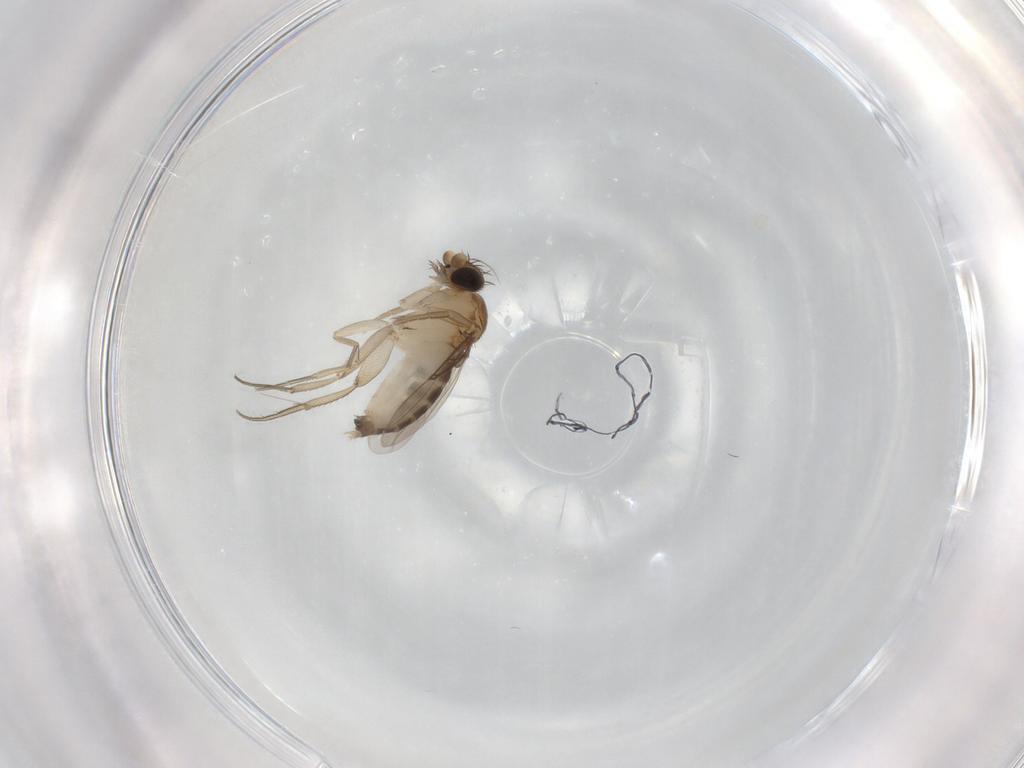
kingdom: Animalia
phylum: Arthropoda
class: Insecta
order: Diptera
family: Phoridae
